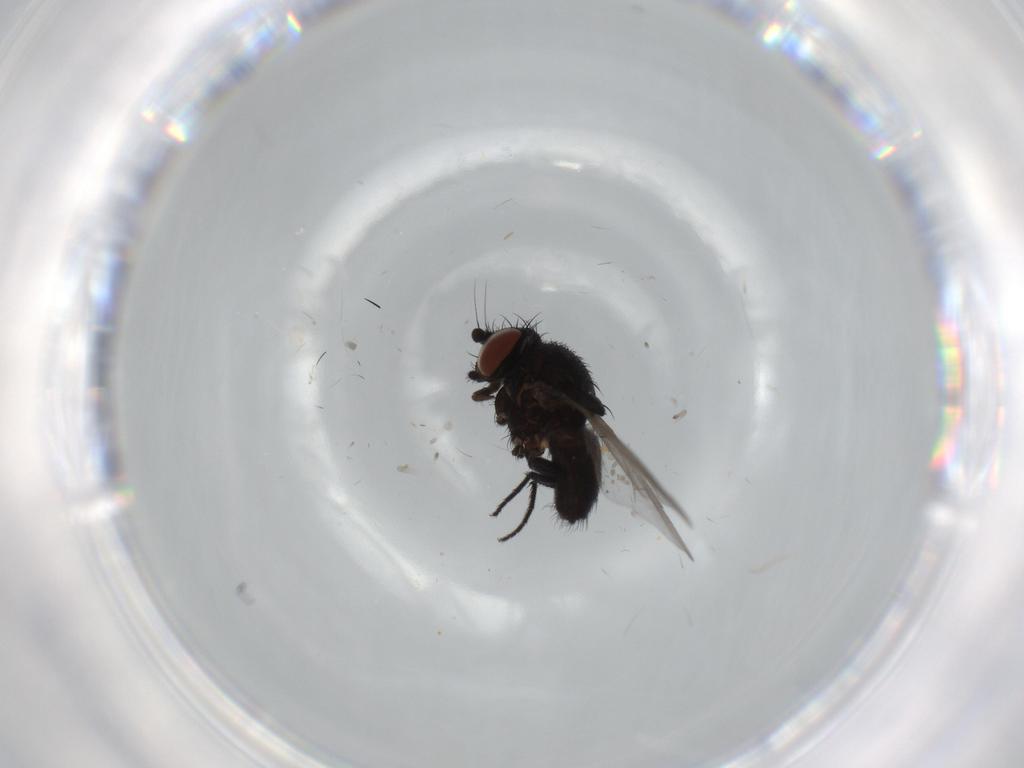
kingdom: Animalia
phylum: Arthropoda
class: Insecta
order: Diptera
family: Milichiidae
